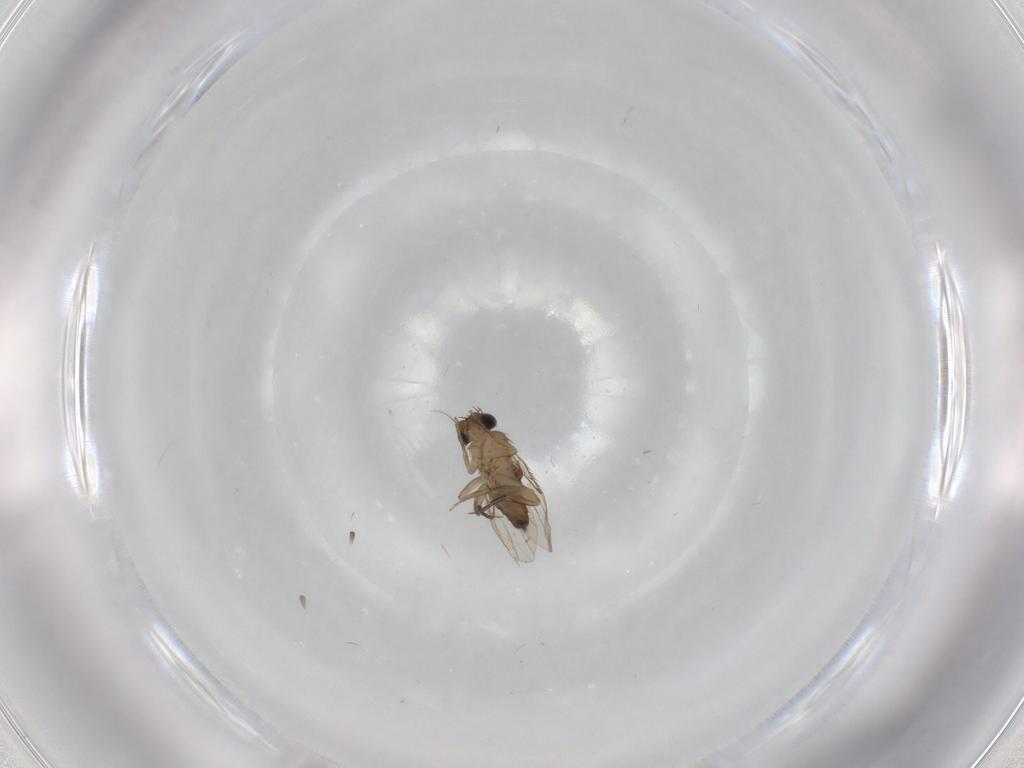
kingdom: Animalia
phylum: Arthropoda
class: Insecta
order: Diptera
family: Phoridae
